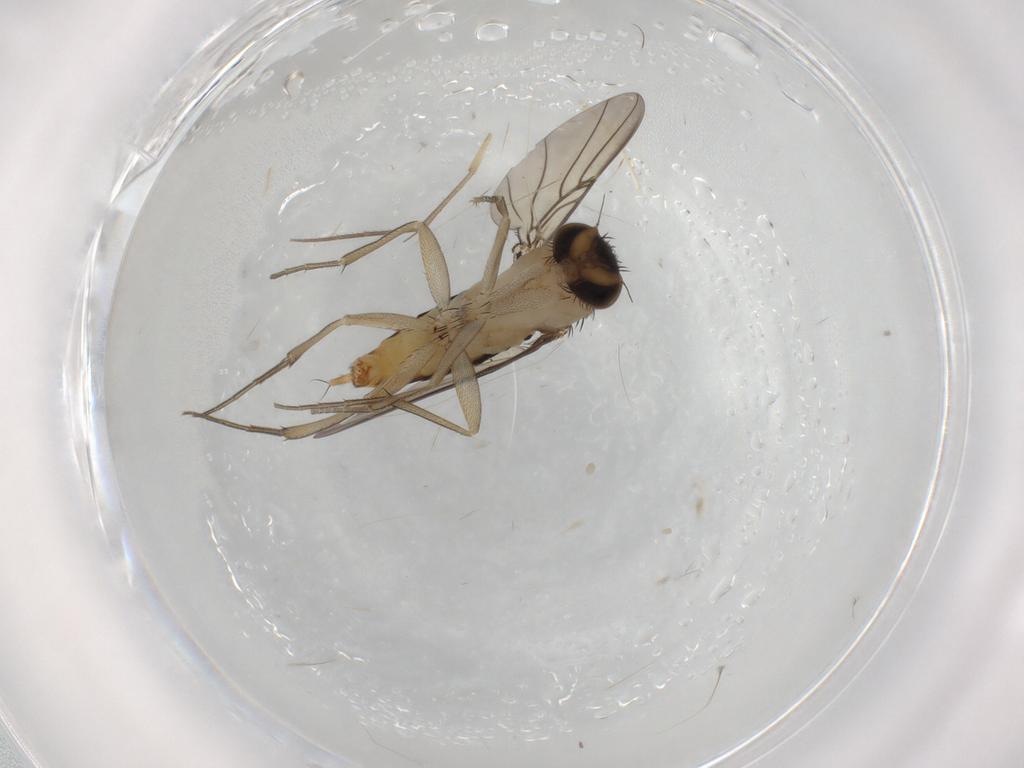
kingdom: Animalia
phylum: Arthropoda
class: Insecta
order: Diptera
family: Phoridae
